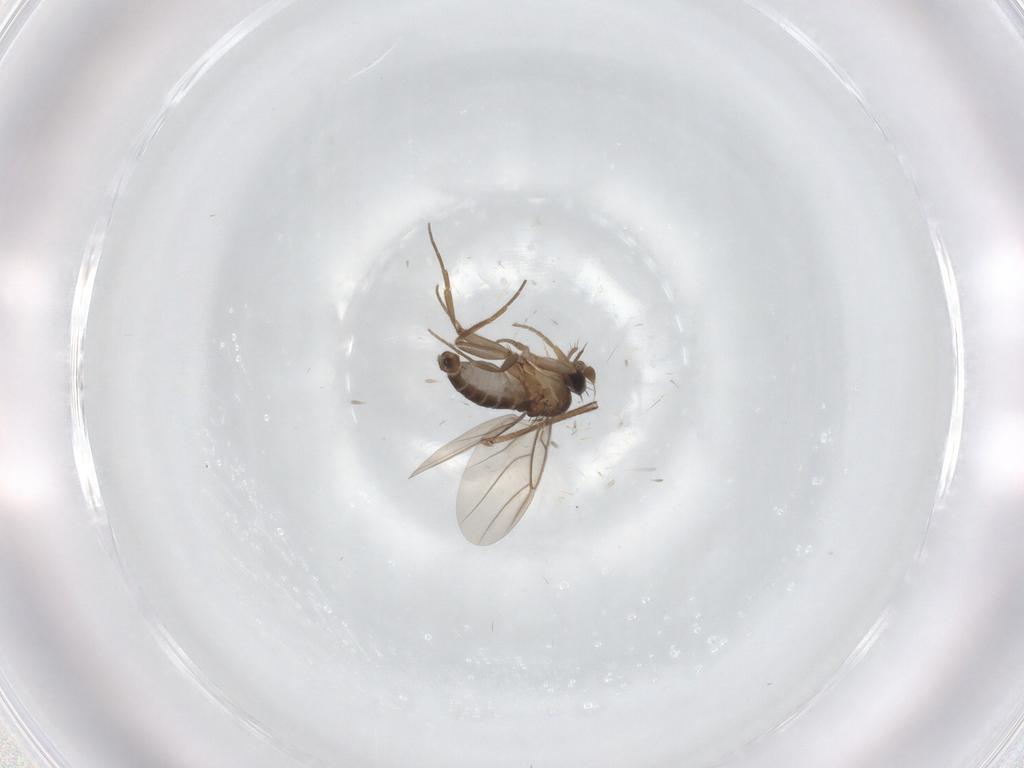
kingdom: Animalia
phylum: Arthropoda
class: Insecta
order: Diptera
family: Phoridae
